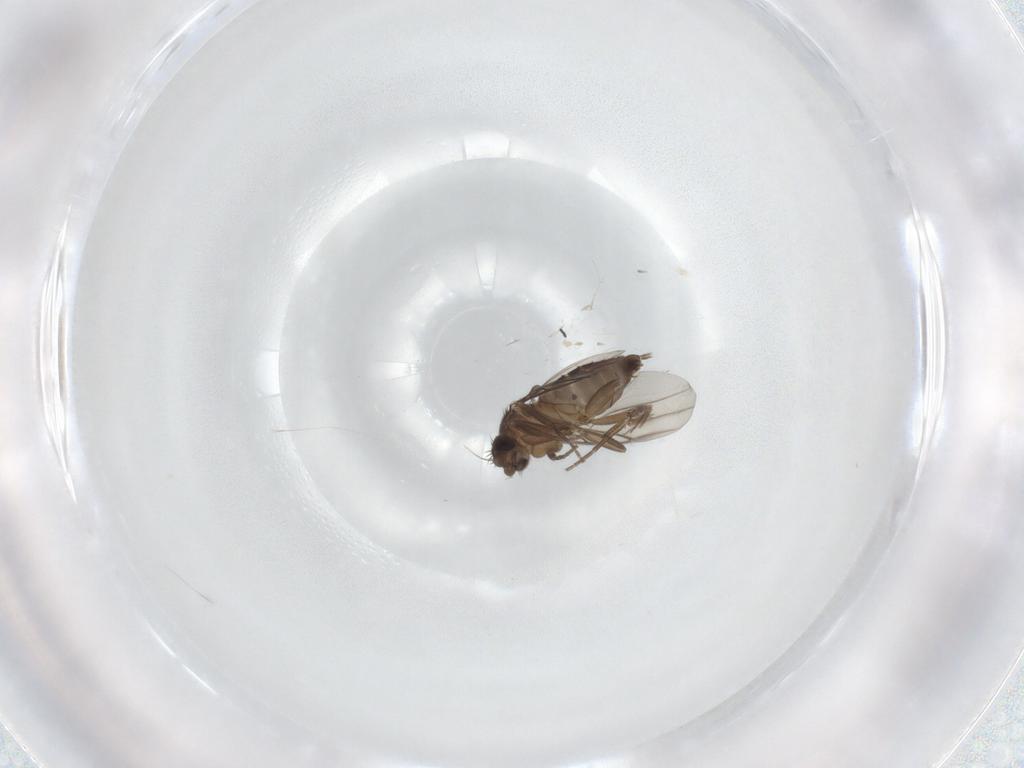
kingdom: Animalia
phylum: Arthropoda
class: Insecta
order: Diptera
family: Phoridae
